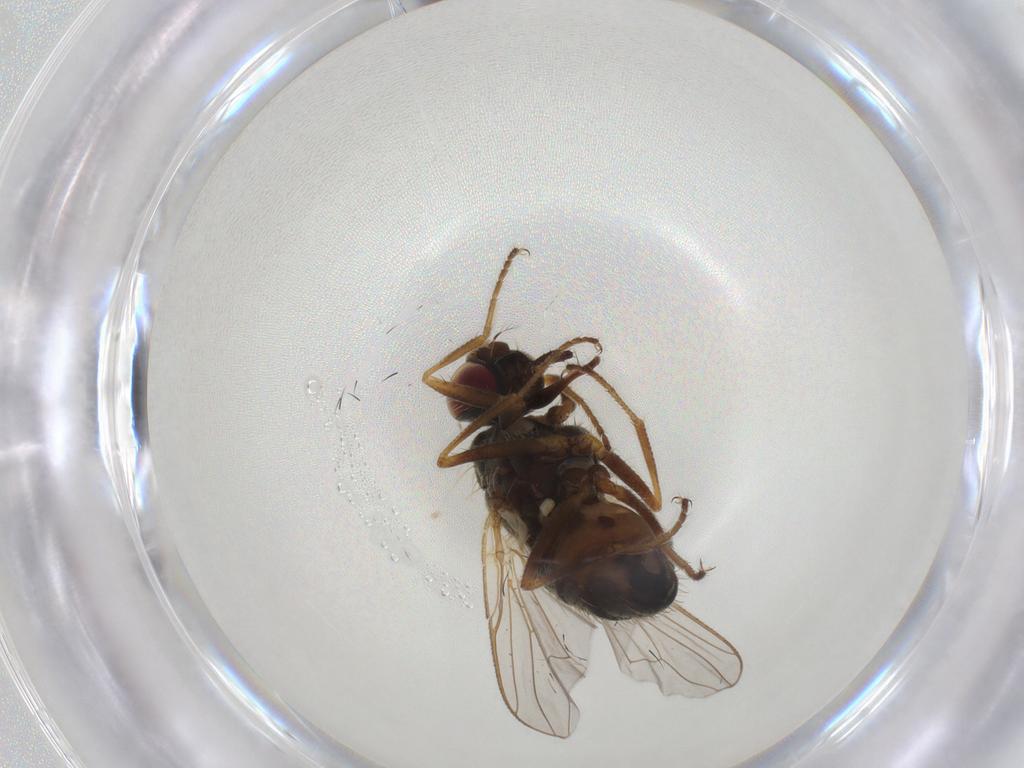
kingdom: Animalia
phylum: Arthropoda
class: Insecta
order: Diptera
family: Muscidae
